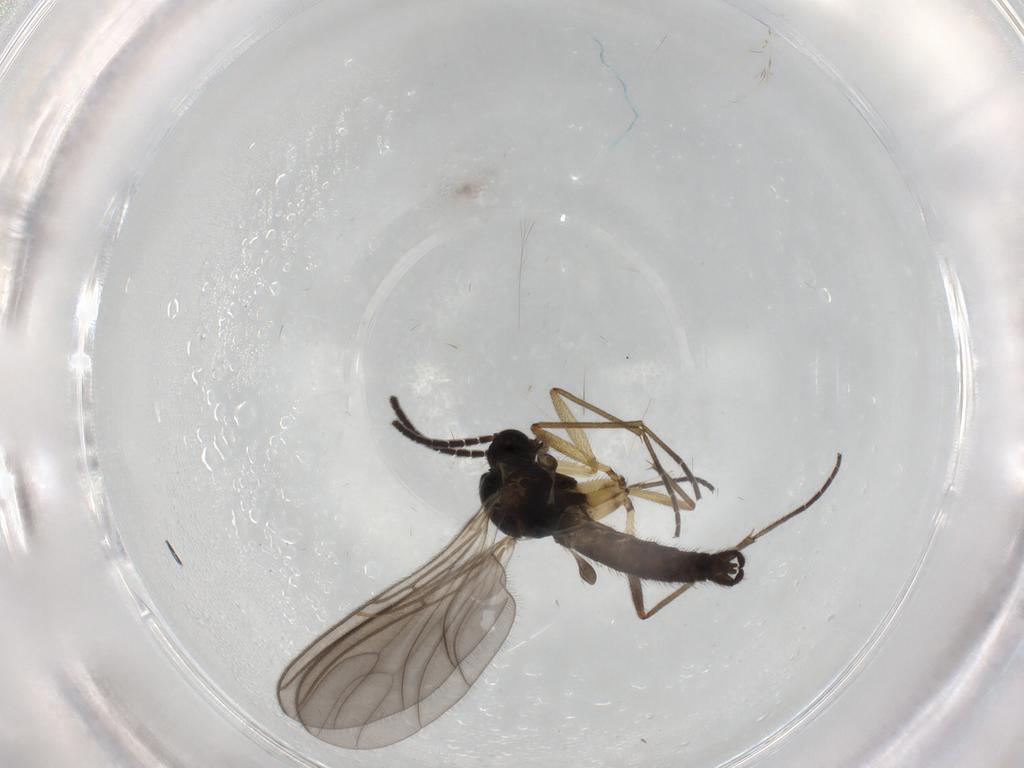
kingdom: Animalia
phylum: Arthropoda
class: Insecta
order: Diptera
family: Sciaridae
